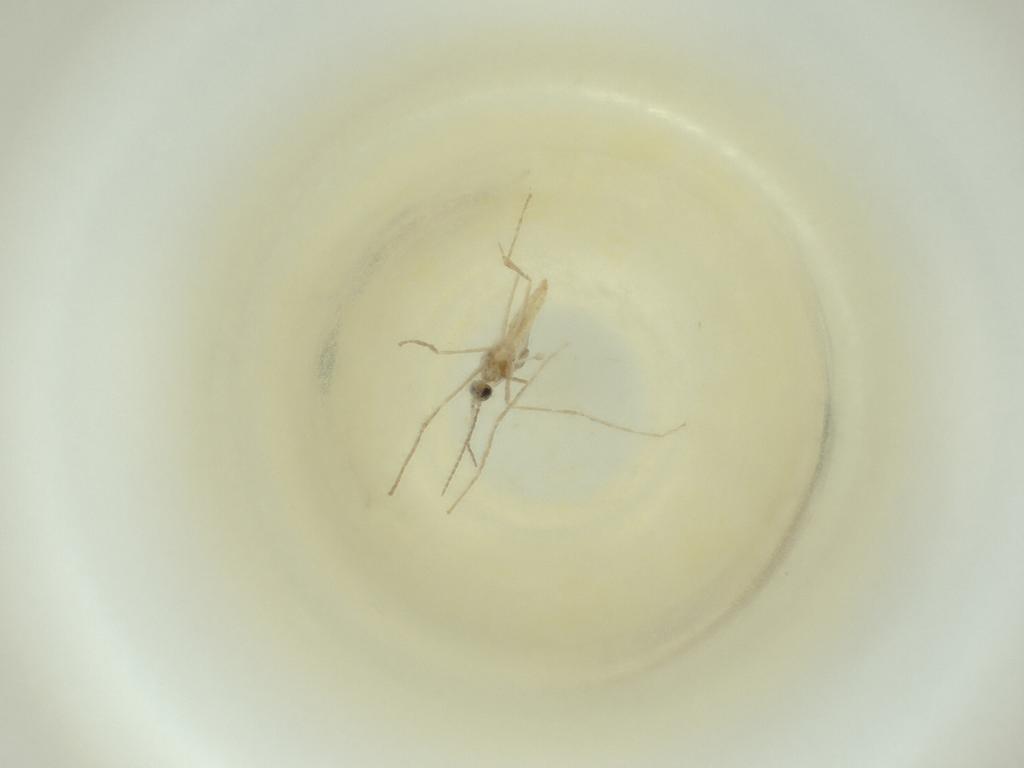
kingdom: Animalia
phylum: Arthropoda
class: Insecta
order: Diptera
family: Cecidomyiidae
